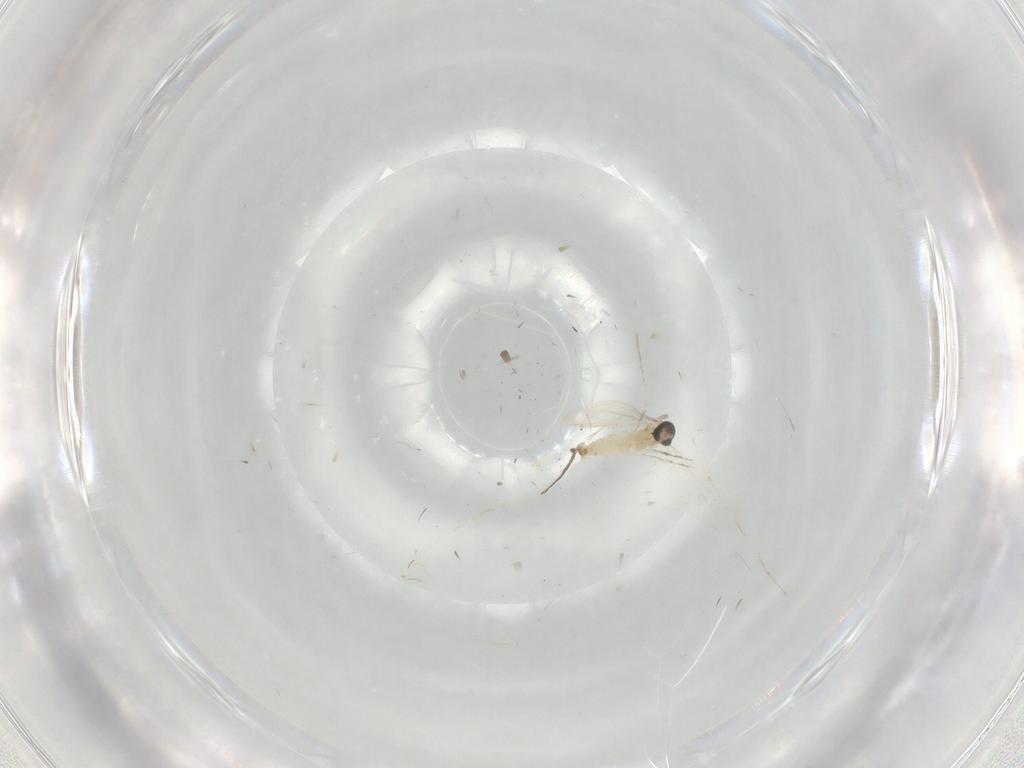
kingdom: Animalia
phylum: Arthropoda
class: Insecta
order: Diptera
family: Cecidomyiidae
